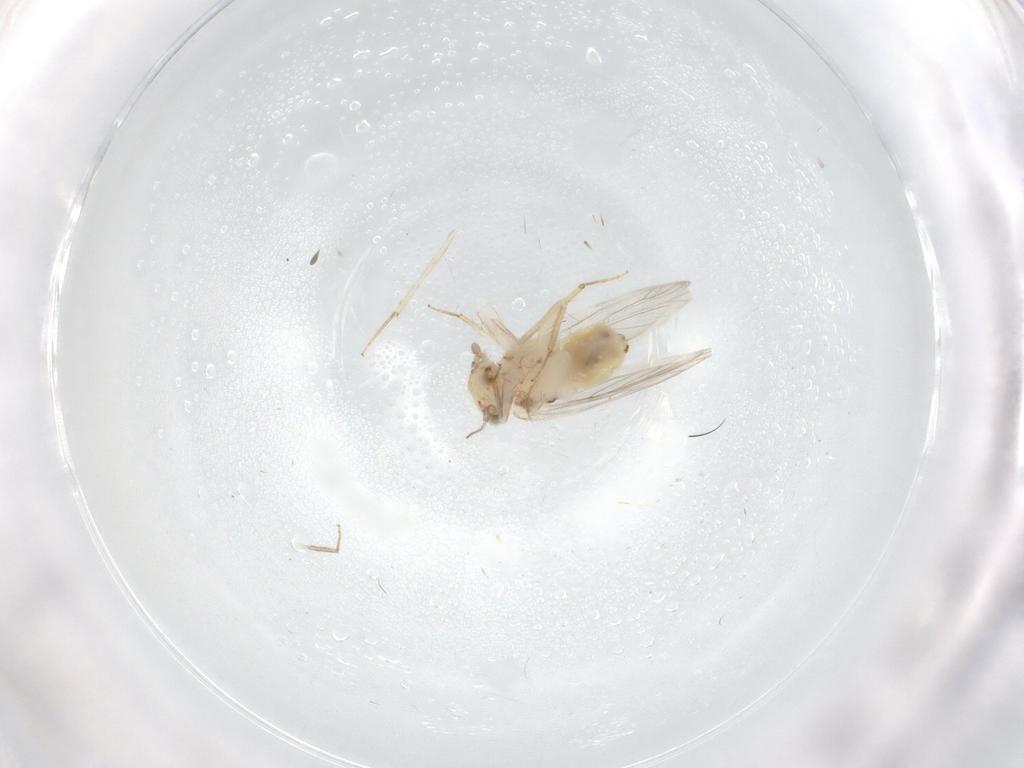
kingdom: Animalia
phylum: Arthropoda
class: Insecta
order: Psocodea
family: Lepidopsocidae
